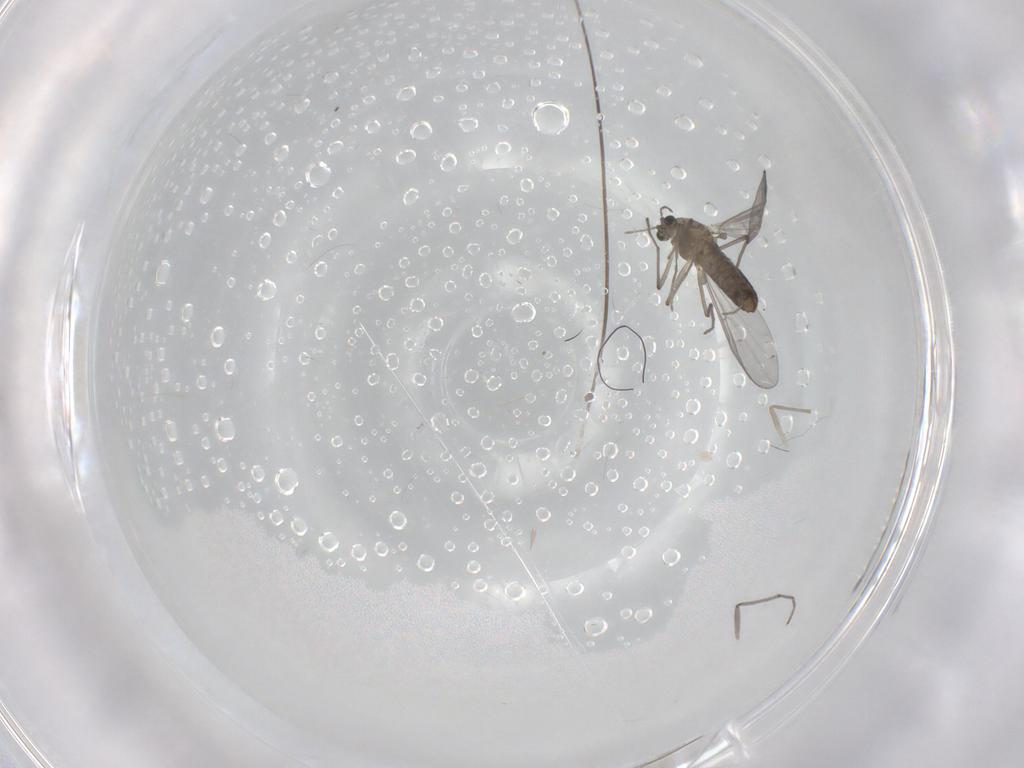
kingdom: Animalia
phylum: Arthropoda
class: Insecta
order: Diptera
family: Chironomidae
